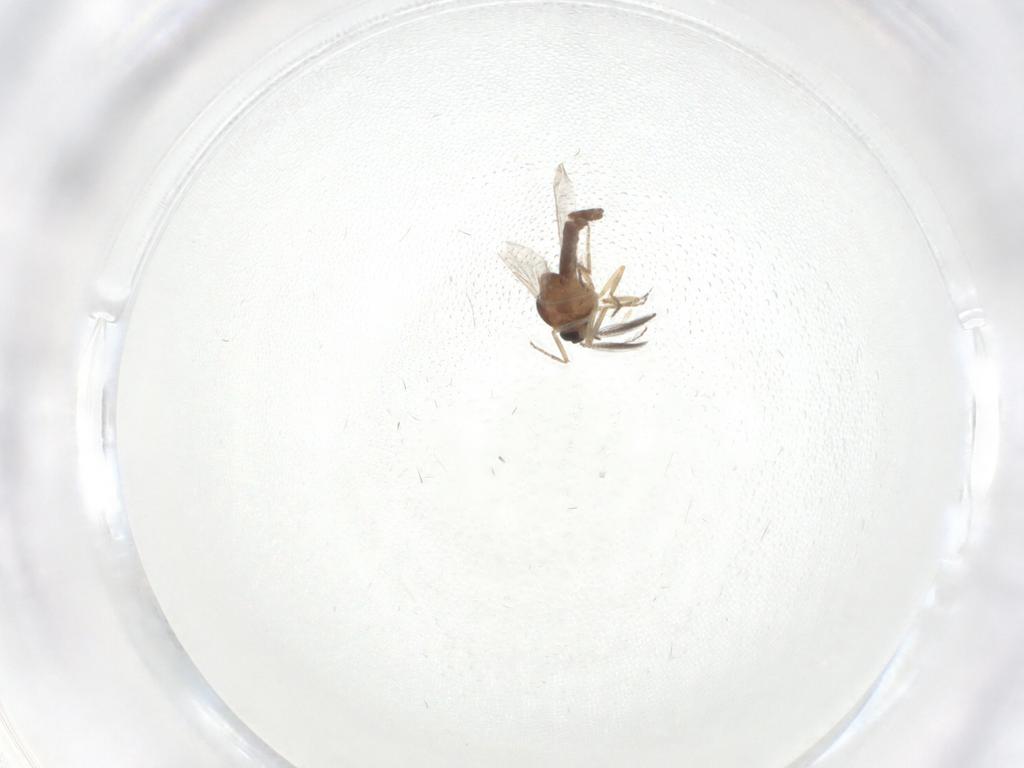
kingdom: Animalia
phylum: Arthropoda
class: Insecta
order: Diptera
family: Ceratopogonidae
